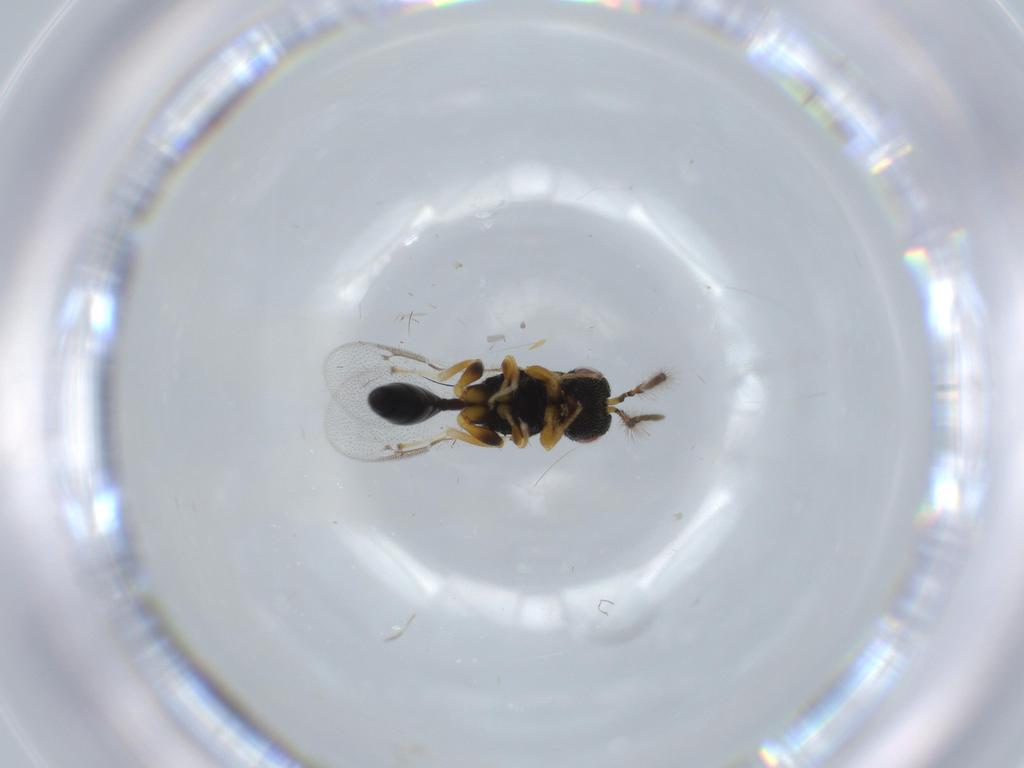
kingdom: Animalia
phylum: Arthropoda
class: Insecta
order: Hymenoptera
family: Eurytomidae
